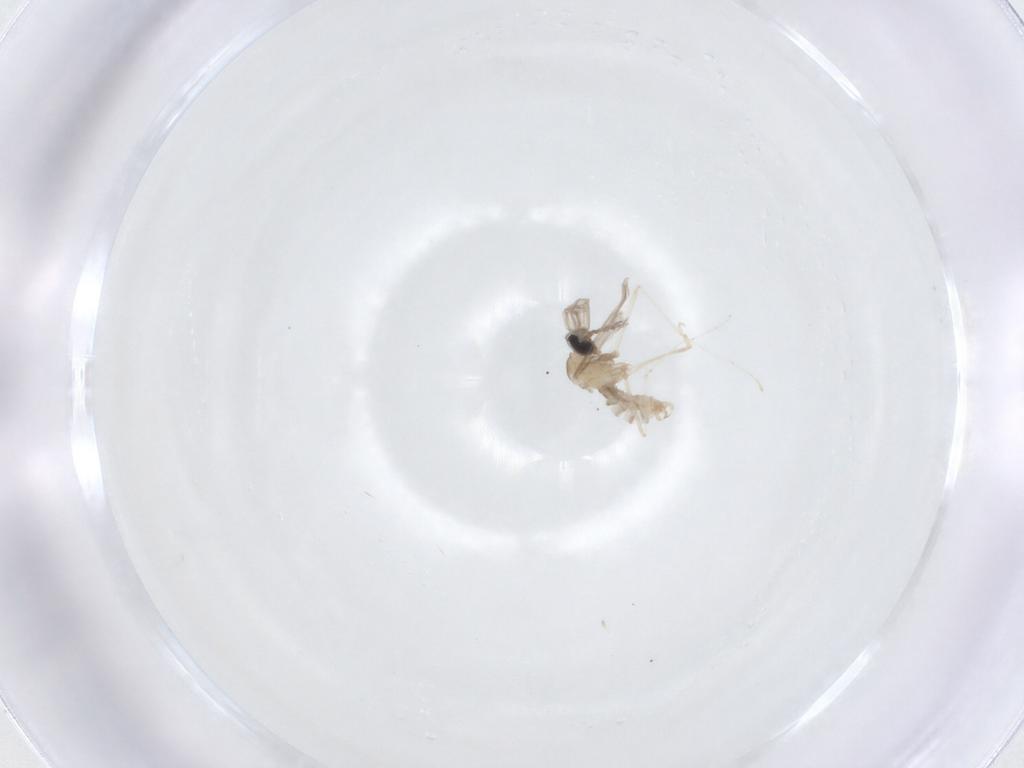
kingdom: Animalia
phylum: Arthropoda
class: Insecta
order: Diptera
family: Cecidomyiidae
